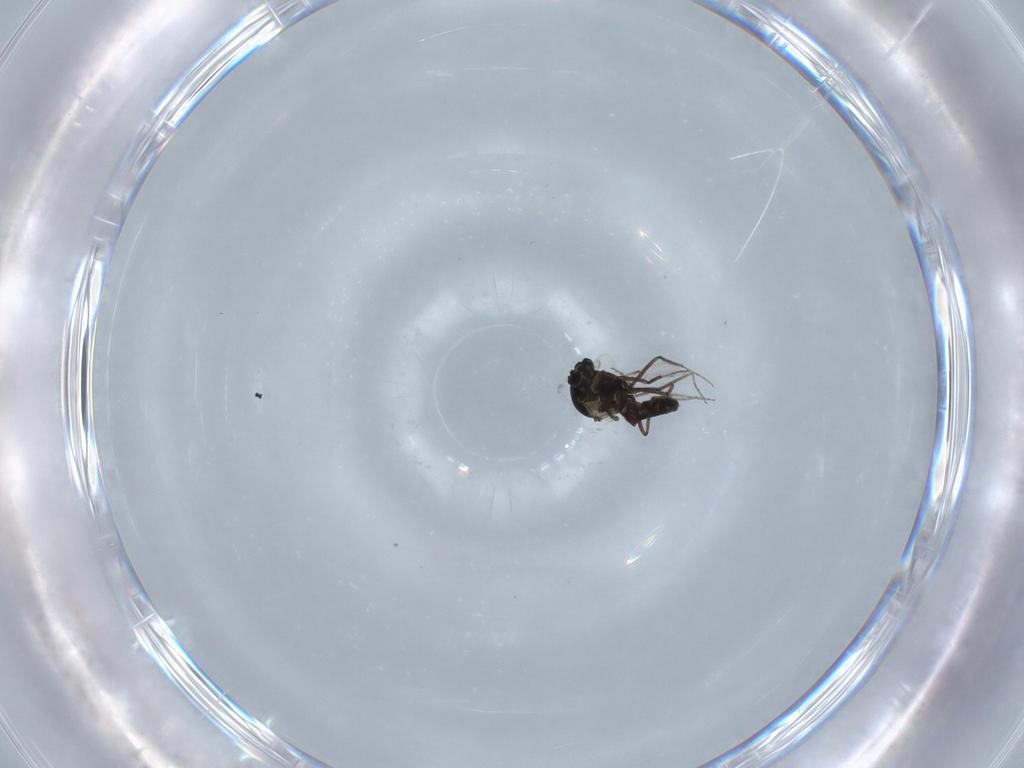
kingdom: Animalia
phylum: Arthropoda
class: Insecta
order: Diptera
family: Ceratopogonidae
